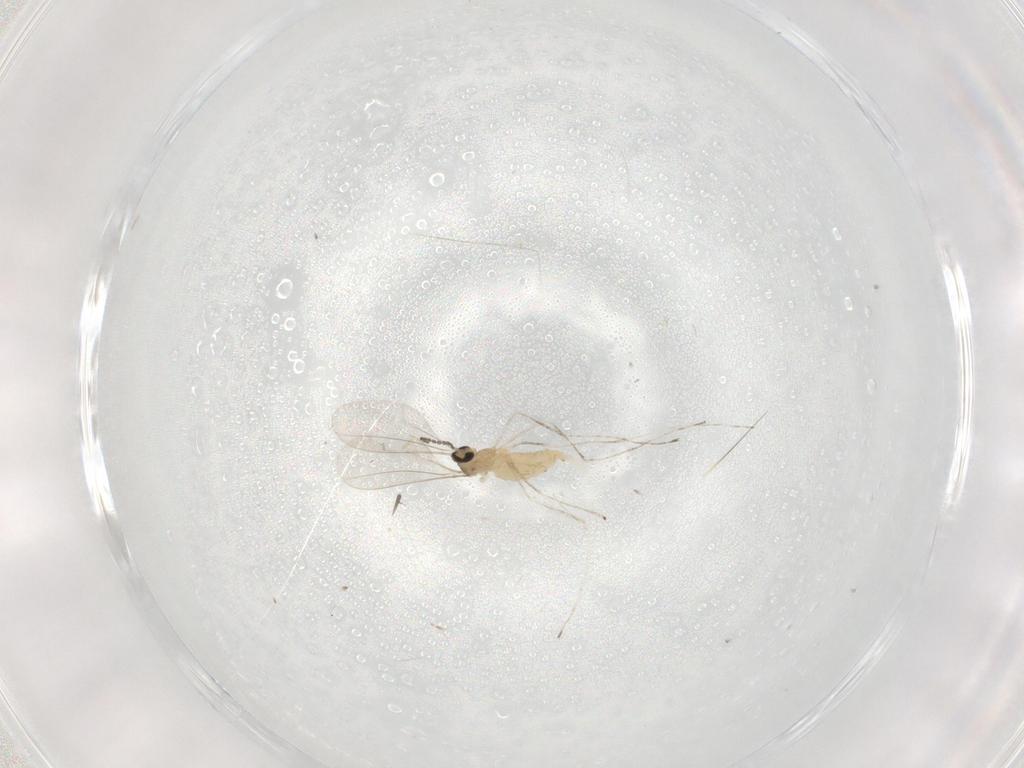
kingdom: Animalia
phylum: Arthropoda
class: Insecta
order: Diptera
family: Cecidomyiidae
